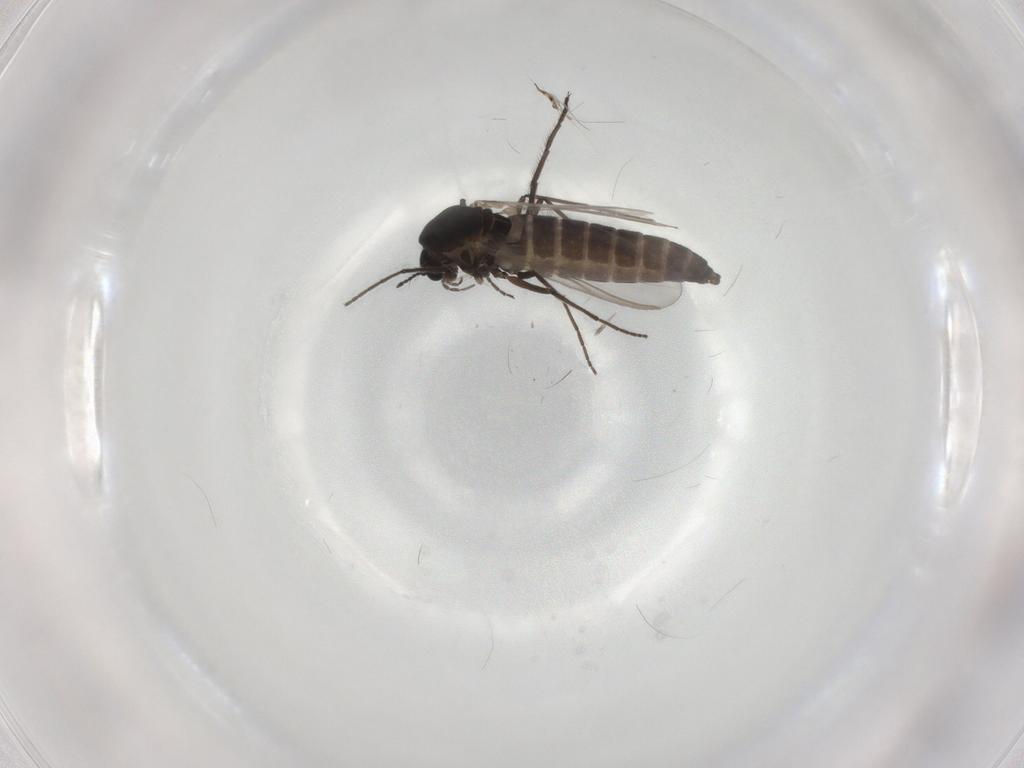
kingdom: Animalia
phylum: Arthropoda
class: Insecta
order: Diptera
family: Chironomidae
